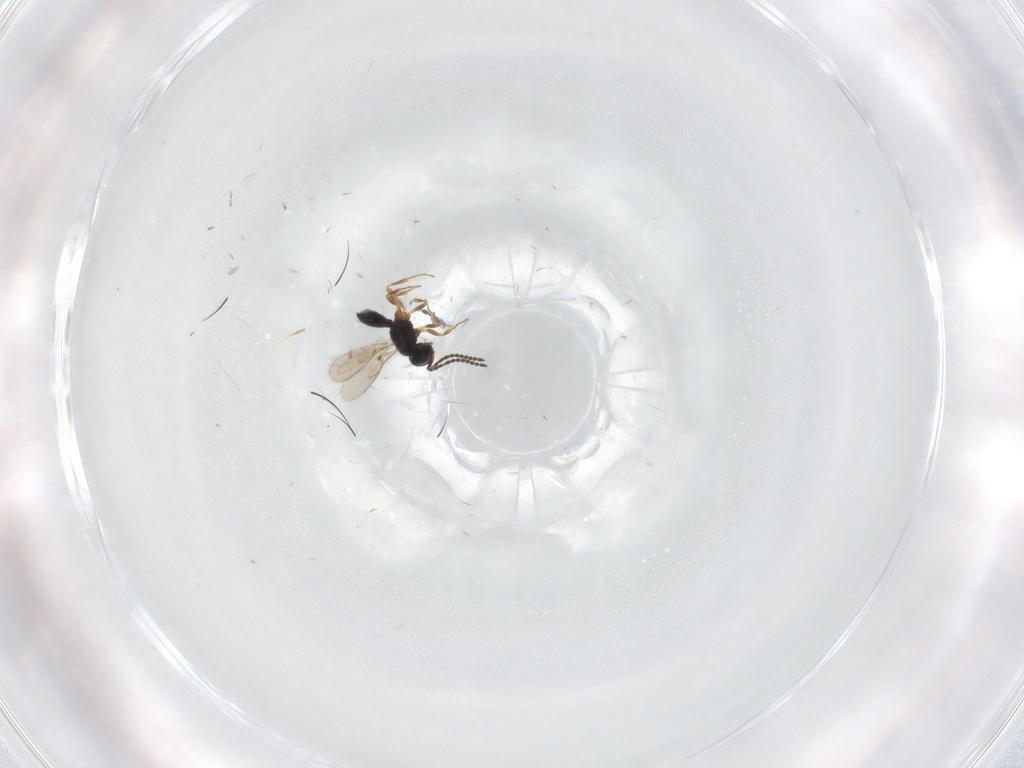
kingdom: Animalia
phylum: Arthropoda
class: Insecta
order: Hymenoptera
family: Scelionidae
